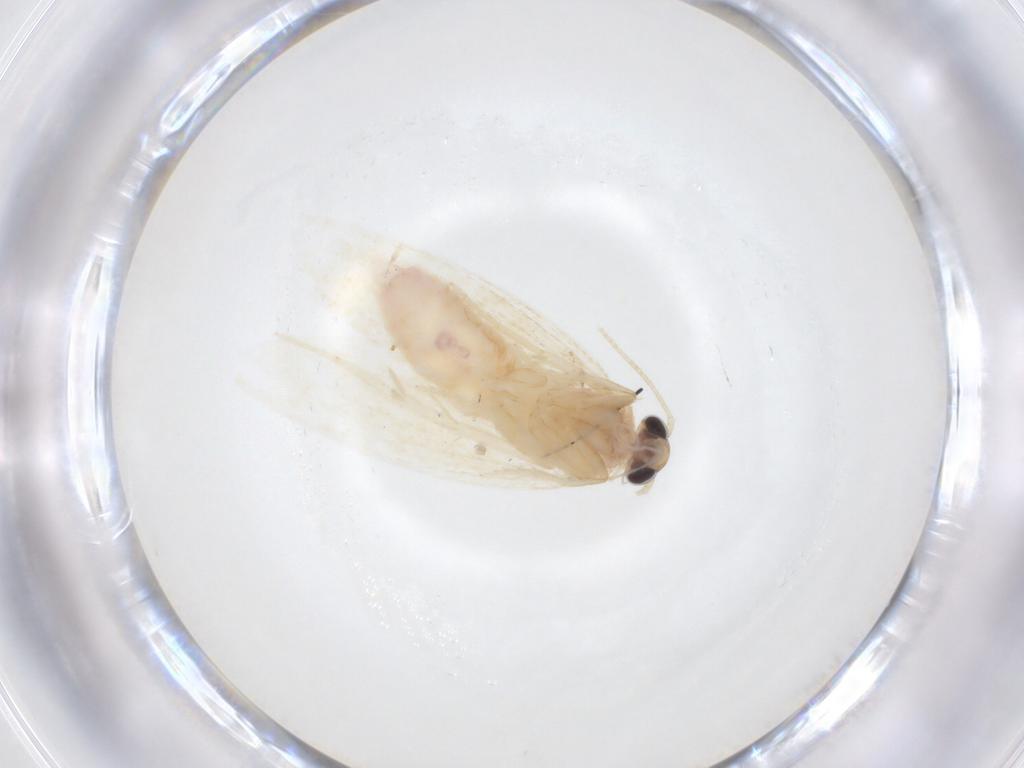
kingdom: Animalia
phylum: Arthropoda
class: Insecta
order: Lepidoptera
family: Autostichidae
